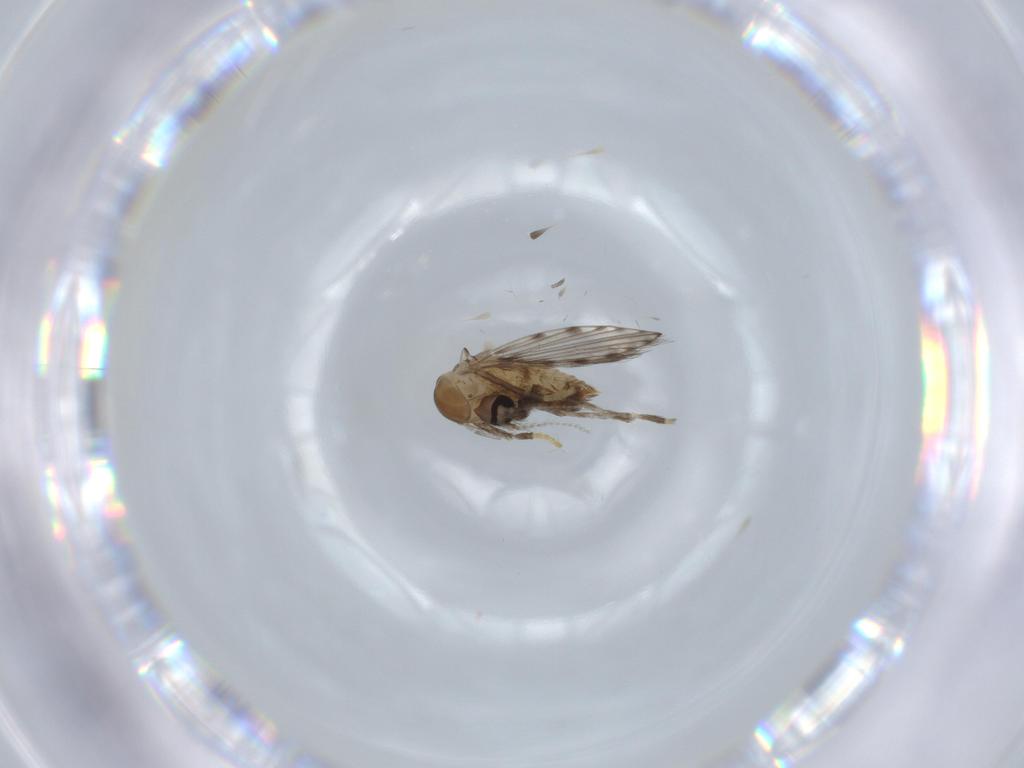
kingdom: Animalia
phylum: Arthropoda
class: Insecta
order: Diptera
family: Psychodidae
